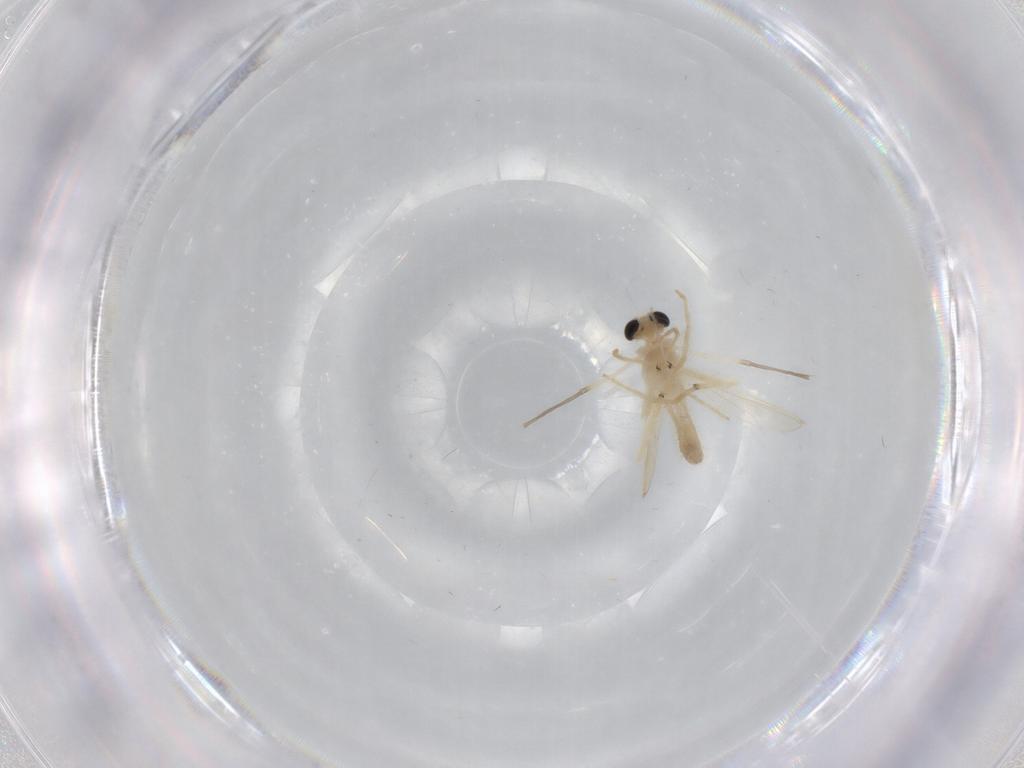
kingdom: Animalia
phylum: Arthropoda
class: Insecta
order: Diptera
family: Chironomidae
